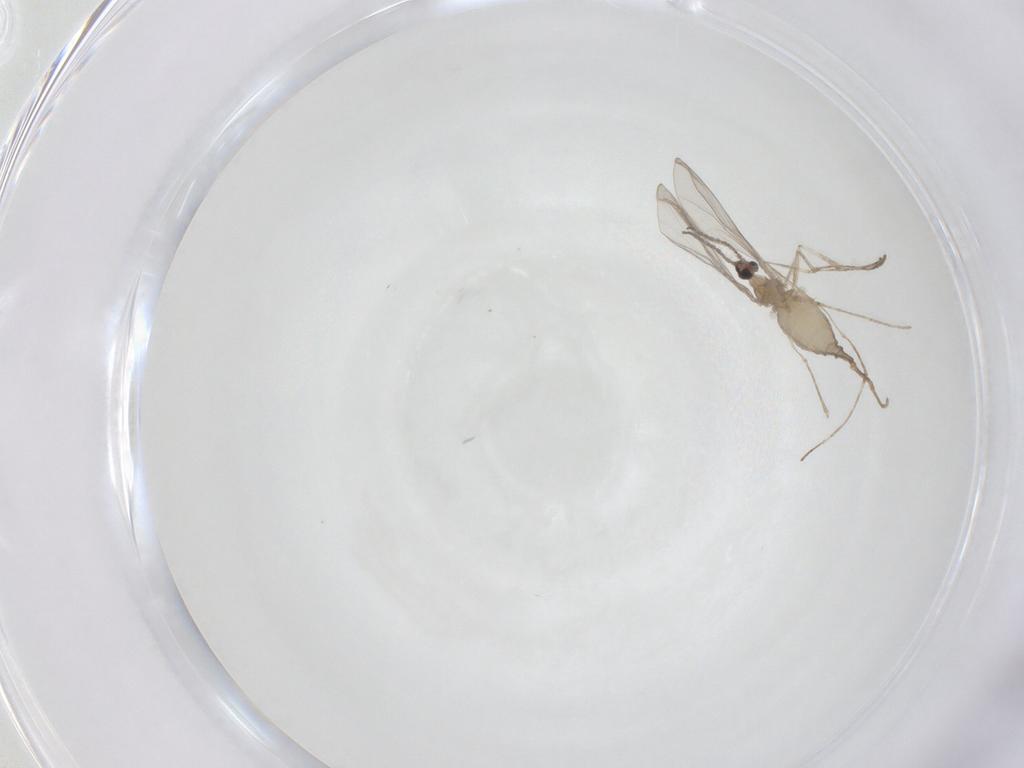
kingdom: Animalia
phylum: Arthropoda
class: Insecta
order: Diptera
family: Cecidomyiidae
